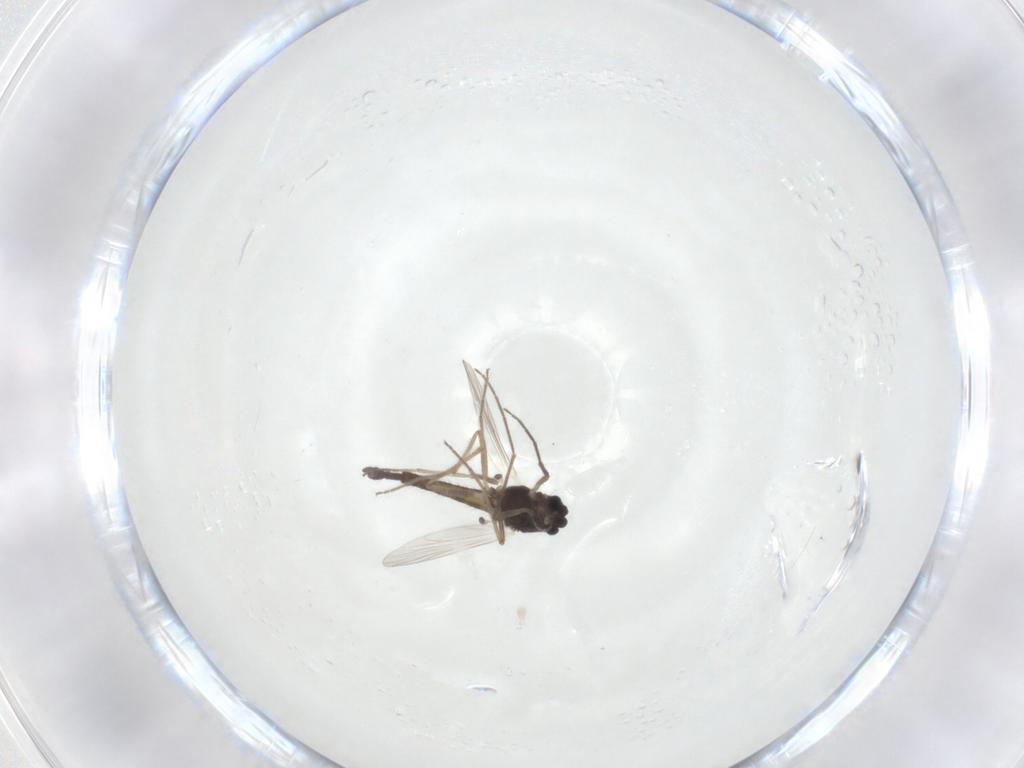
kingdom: Animalia
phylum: Arthropoda
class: Insecta
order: Diptera
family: Chironomidae
